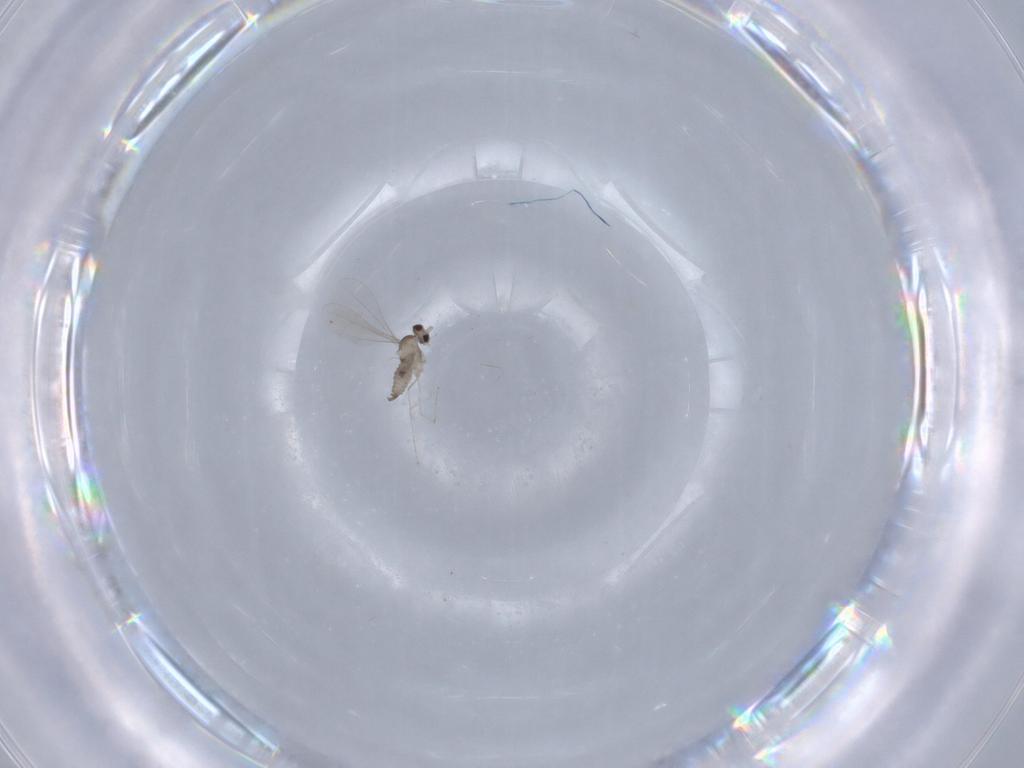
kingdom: Animalia
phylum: Arthropoda
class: Insecta
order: Diptera
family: Cecidomyiidae
